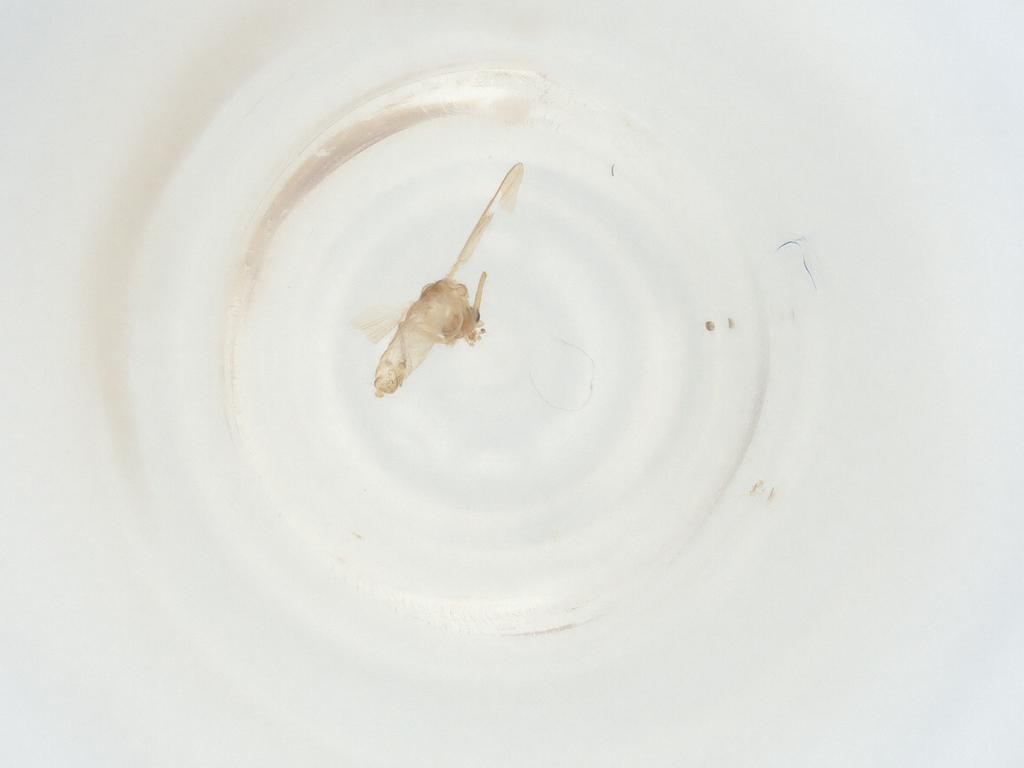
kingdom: Animalia
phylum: Arthropoda
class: Insecta
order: Diptera
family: Chironomidae
